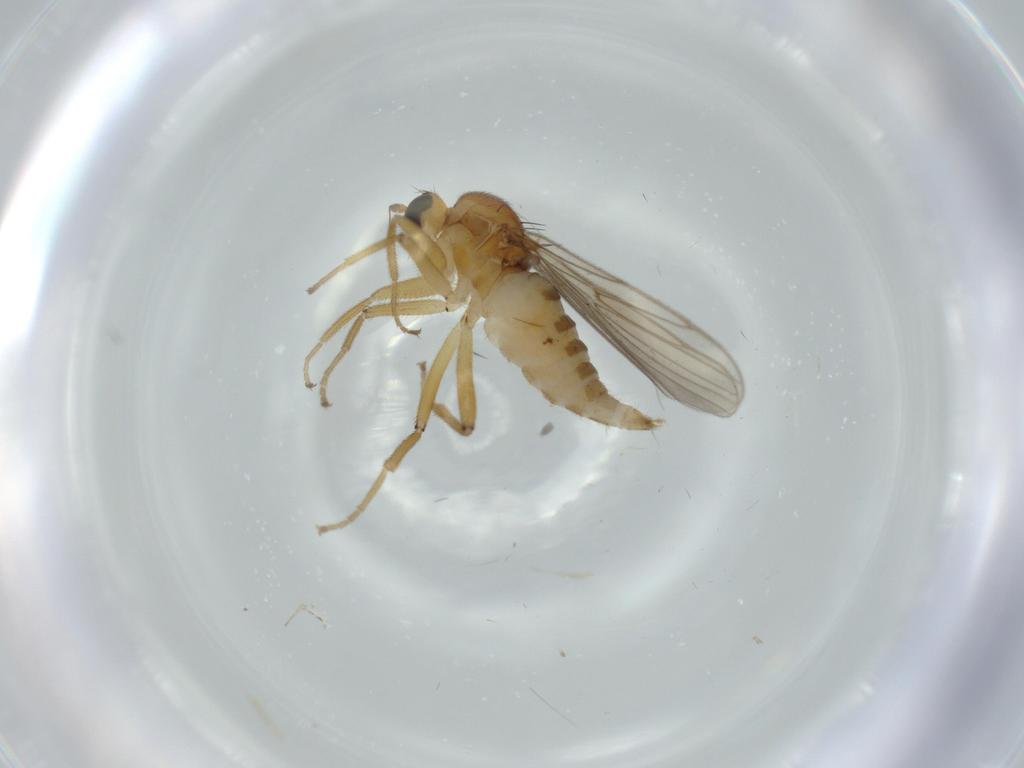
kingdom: Animalia
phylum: Arthropoda
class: Insecta
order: Diptera
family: Hybotidae
